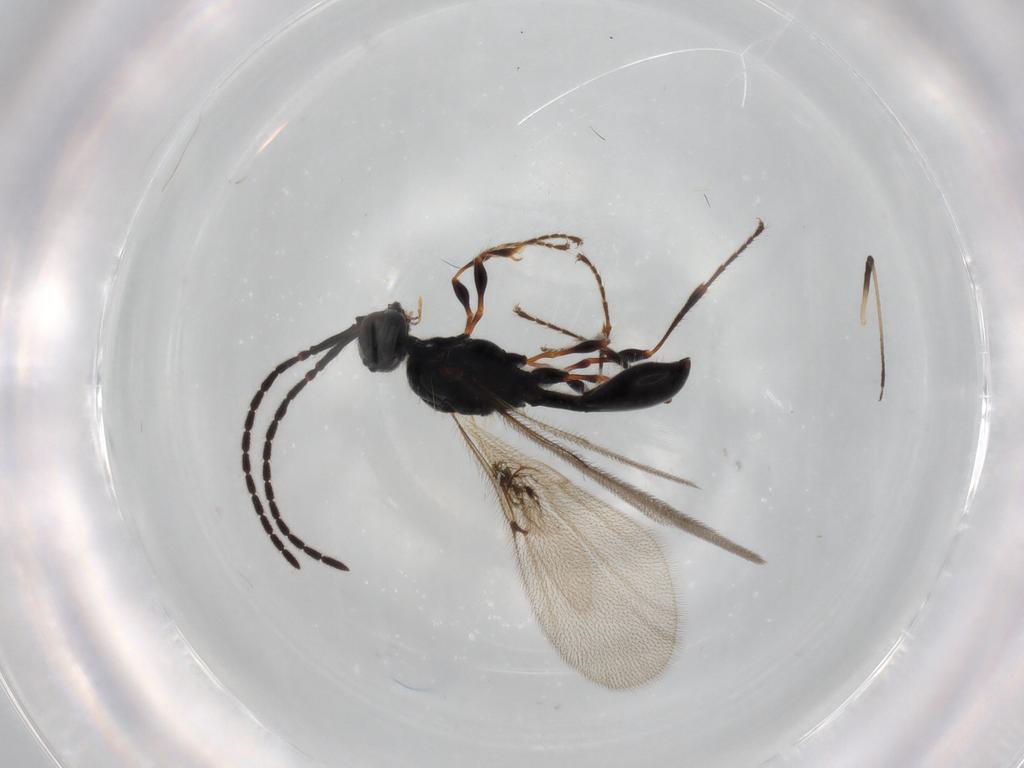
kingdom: Animalia
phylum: Arthropoda
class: Insecta
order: Hymenoptera
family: Diapriidae
